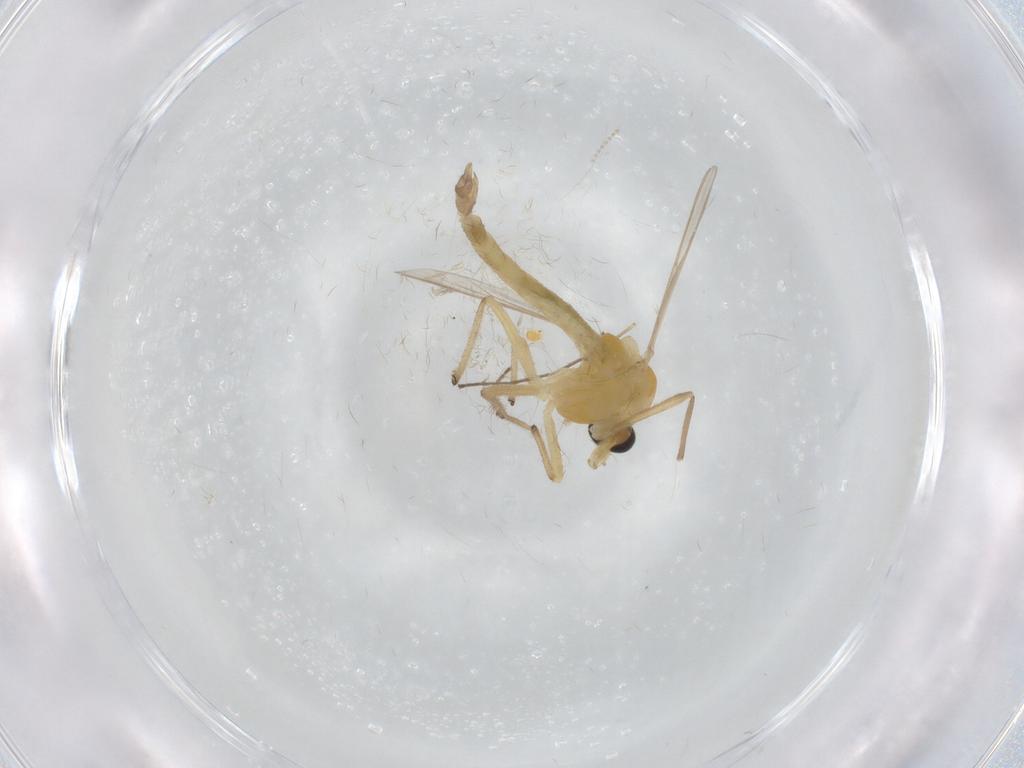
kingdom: Animalia
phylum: Arthropoda
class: Insecta
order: Diptera
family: Chironomidae
